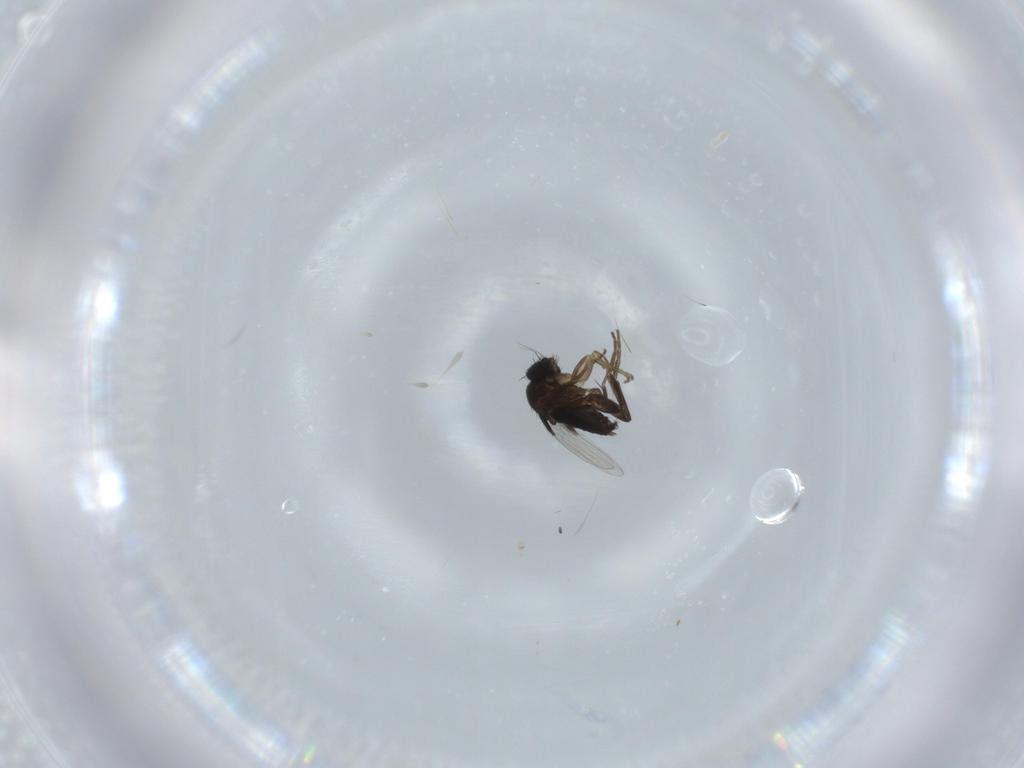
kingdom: Animalia
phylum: Arthropoda
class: Insecta
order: Diptera
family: Phoridae
